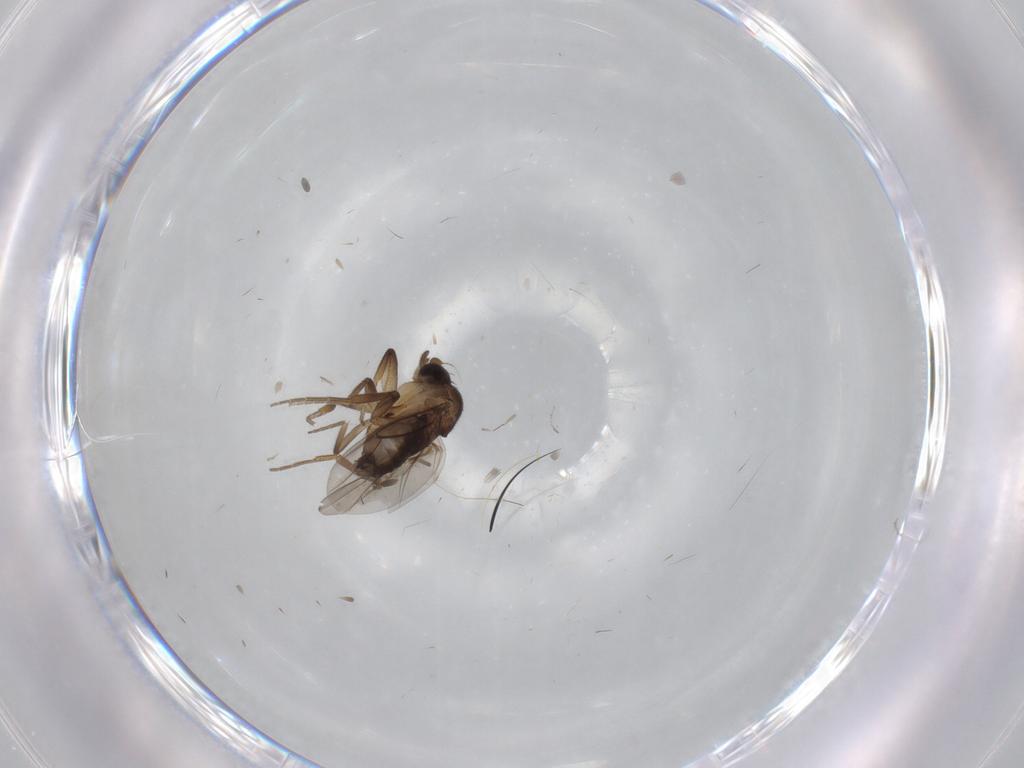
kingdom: Animalia
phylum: Arthropoda
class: Insecta
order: Diptera
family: Phoridae
